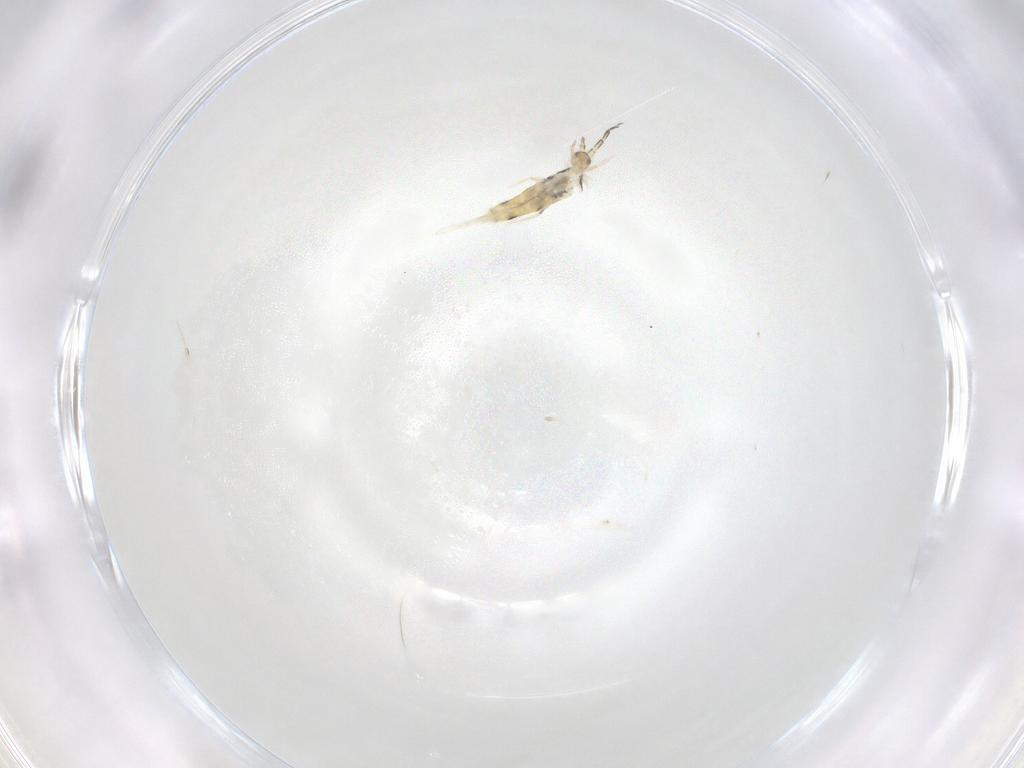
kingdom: Animalia
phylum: Arthropoda
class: Collembola
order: Entomobryomorpha
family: Entomobryidae
